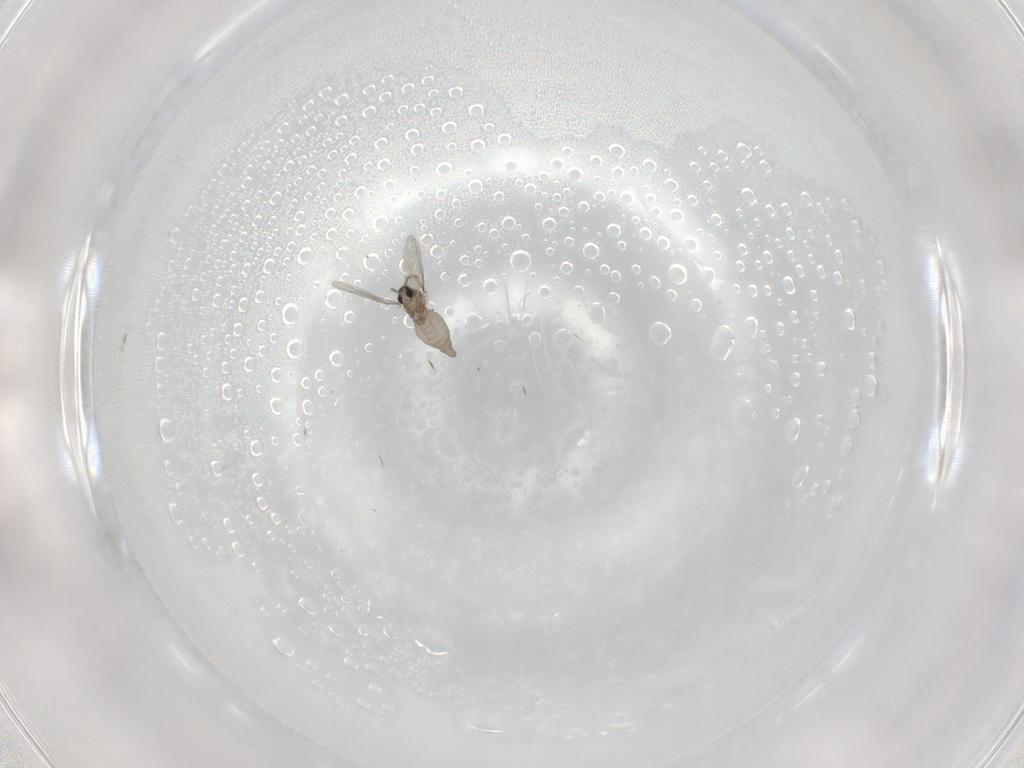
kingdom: Animalia
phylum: Arthropoda
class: Insecta
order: Diptera
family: Cecidomyiidae
